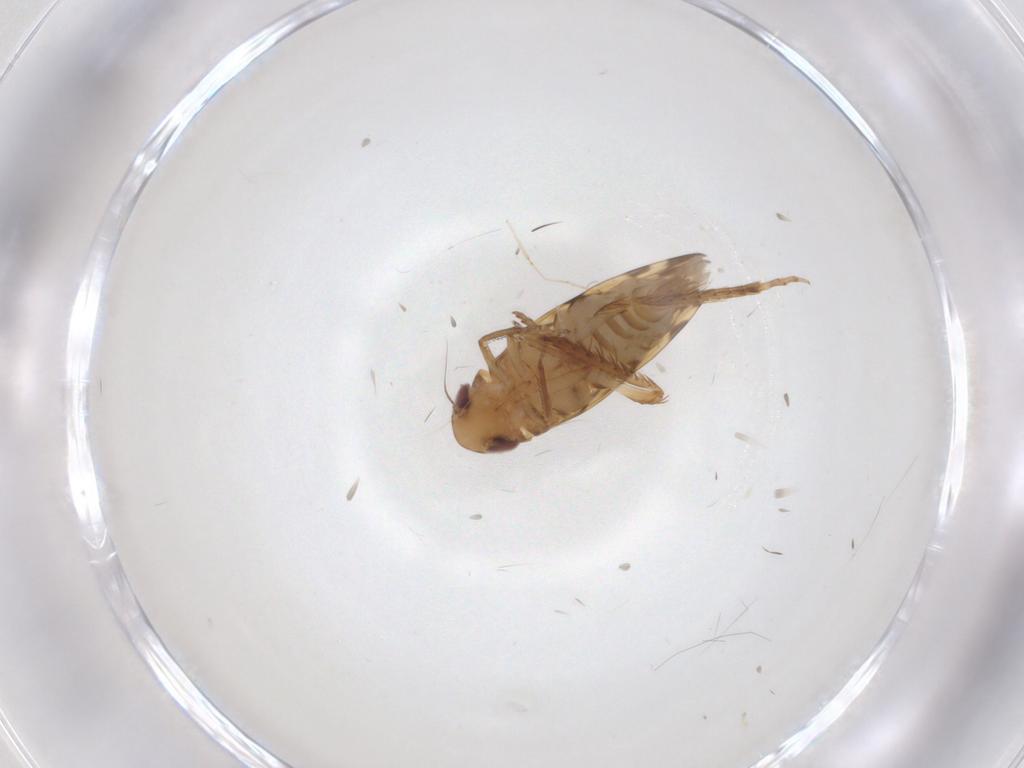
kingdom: Animalia
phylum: Arthropoda
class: Insecta
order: Hemiptera
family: Cicadellidae
